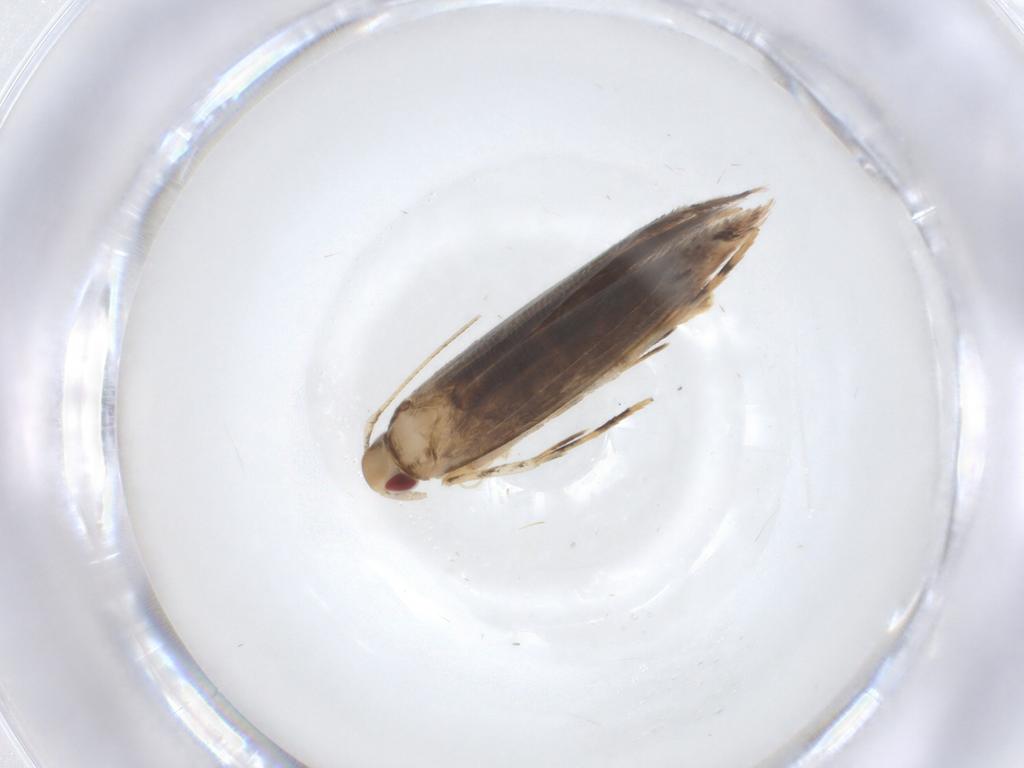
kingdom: Animalia
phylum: Arthropoda
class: Insecta
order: Lepidoptera
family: Cosmopterigidae
